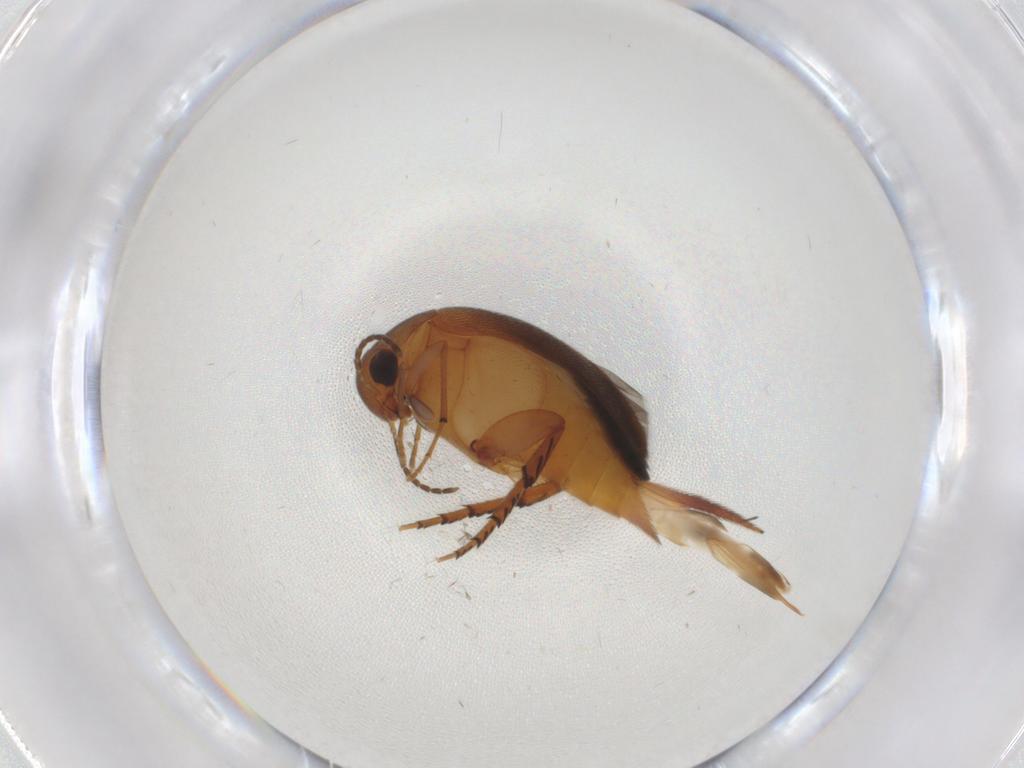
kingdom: Animalia
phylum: Arthropoda
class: Insecta
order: Coleoptera
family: Mordellidae
